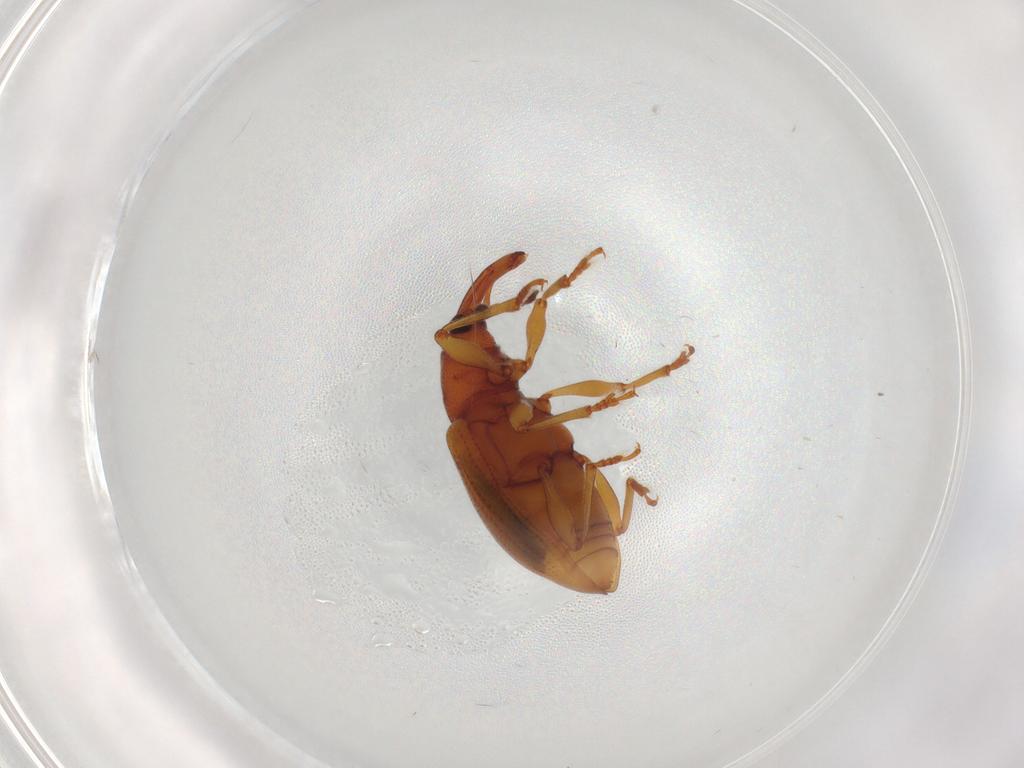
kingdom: Animalia
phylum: Arthropoda
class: Insecta
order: Coleoptera
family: Curculionidae
